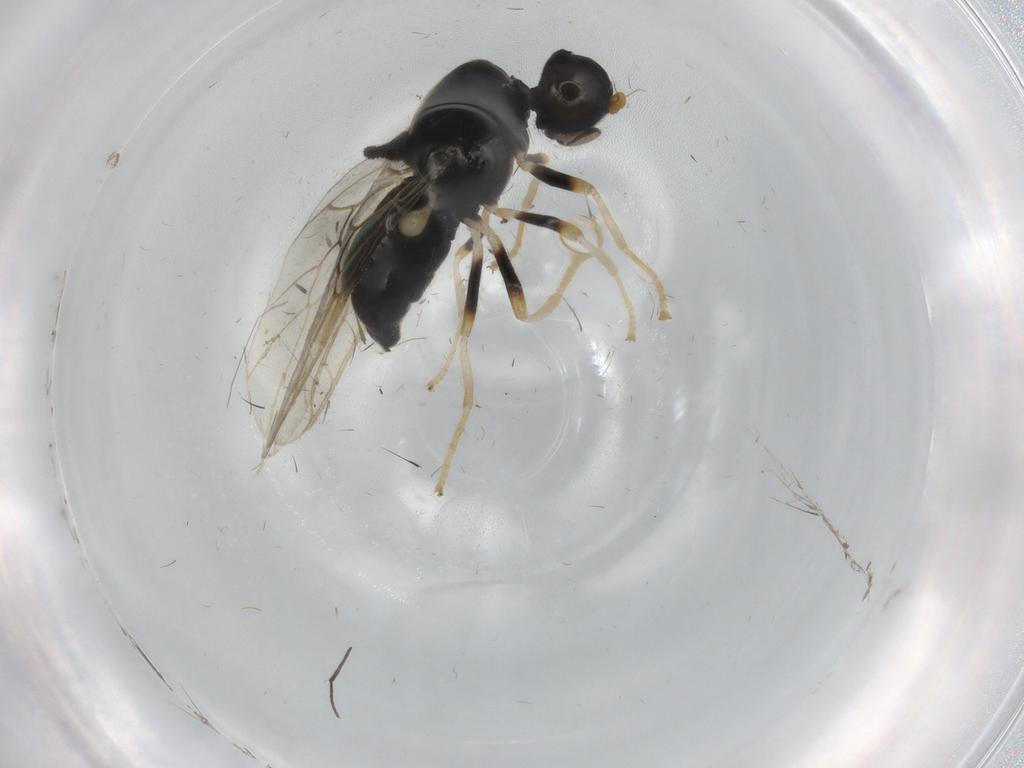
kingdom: Animalia
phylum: Arthropoda
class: Insecta
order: Diptera
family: Stratiomyidae
